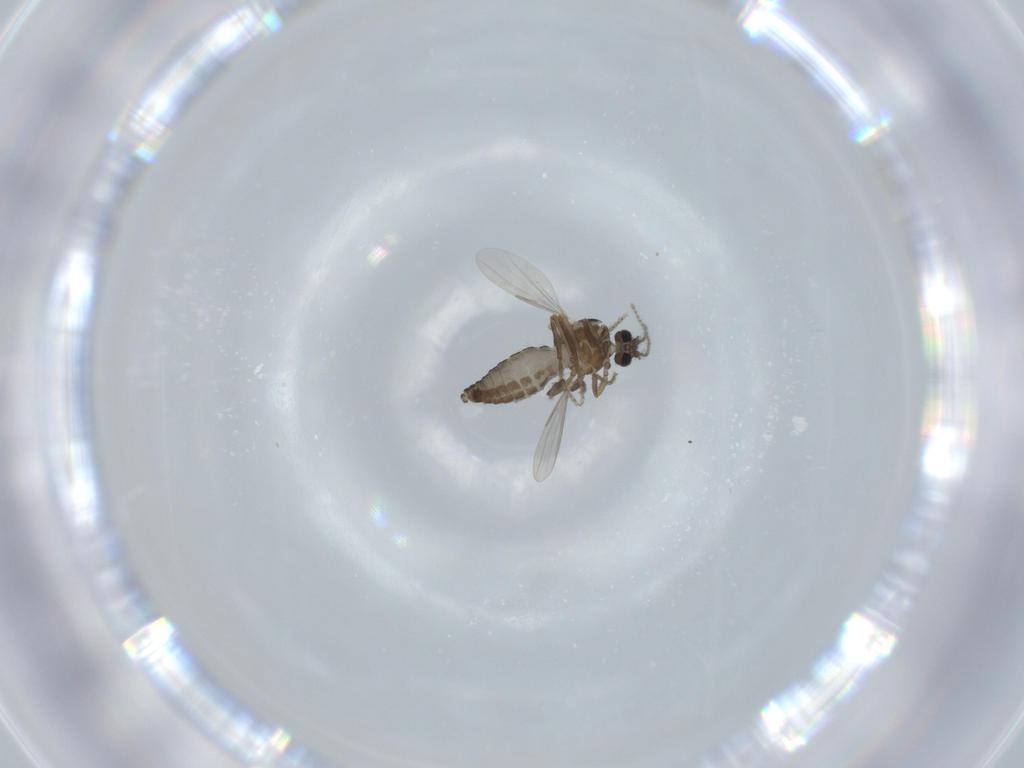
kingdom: Animalia
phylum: Arthropoda
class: Insecta
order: Diptera
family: Ceratopogonidae
